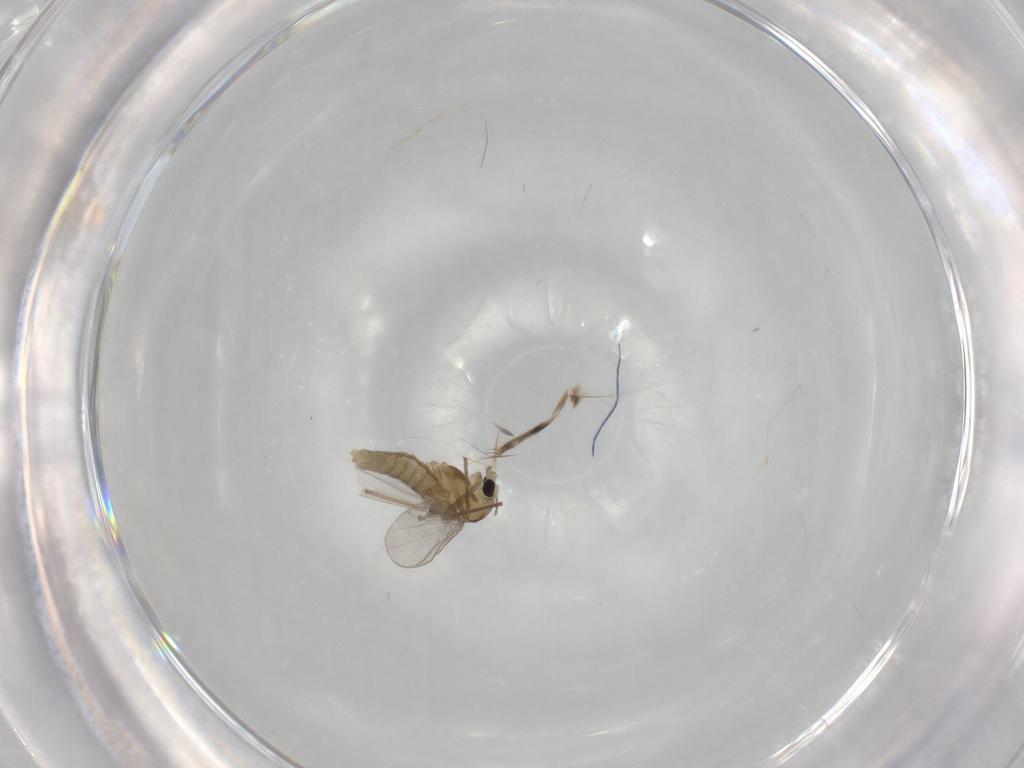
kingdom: Animalia
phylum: Arthropoda
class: Insecta
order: Diptera
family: Chironomidae
